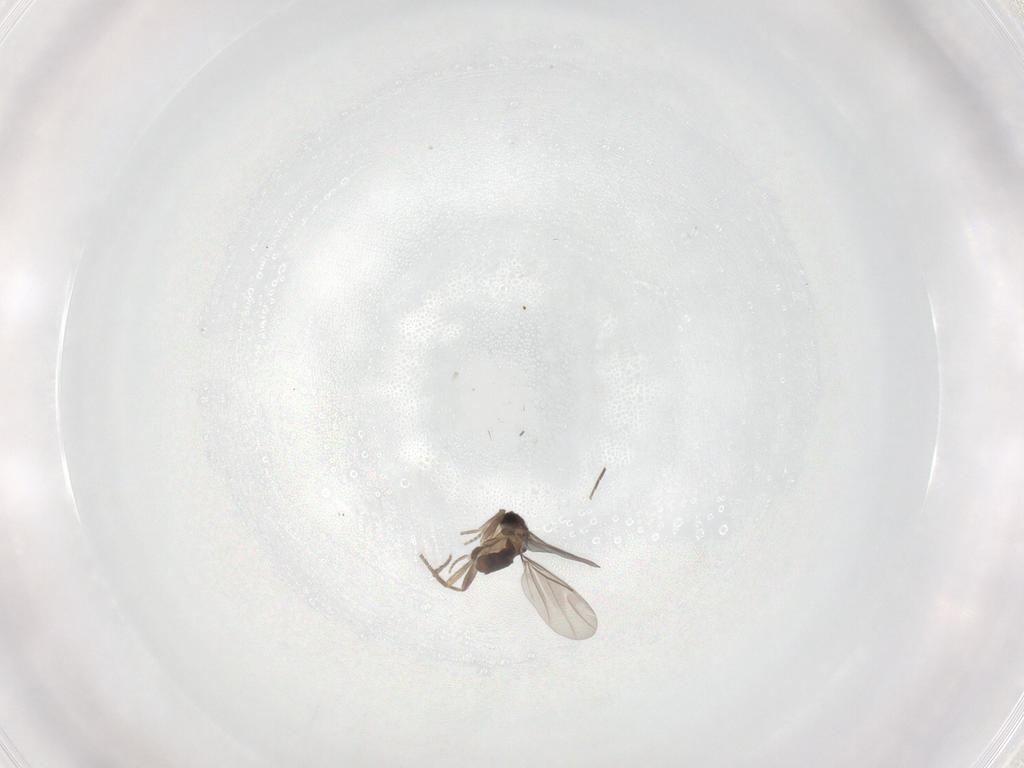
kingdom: Animalia
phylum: Arthropoda
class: Insecta
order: Diptera
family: Phoridae
